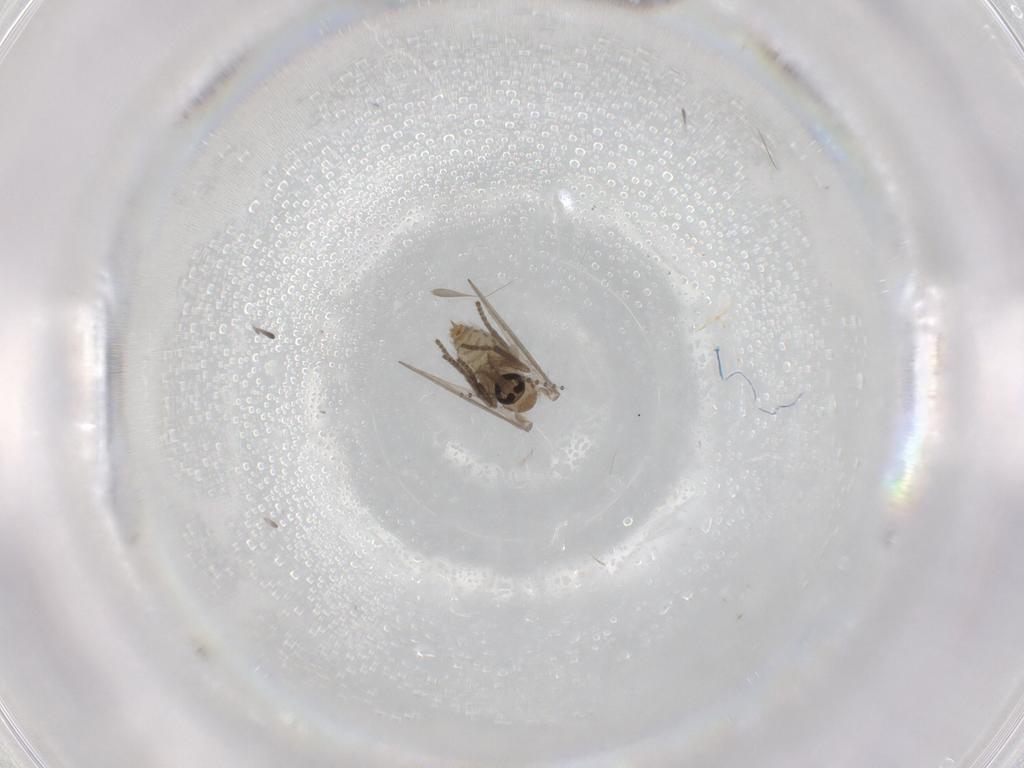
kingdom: Animalia
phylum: Arthropoda
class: Insecta
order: Diptera
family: Psychodidae
